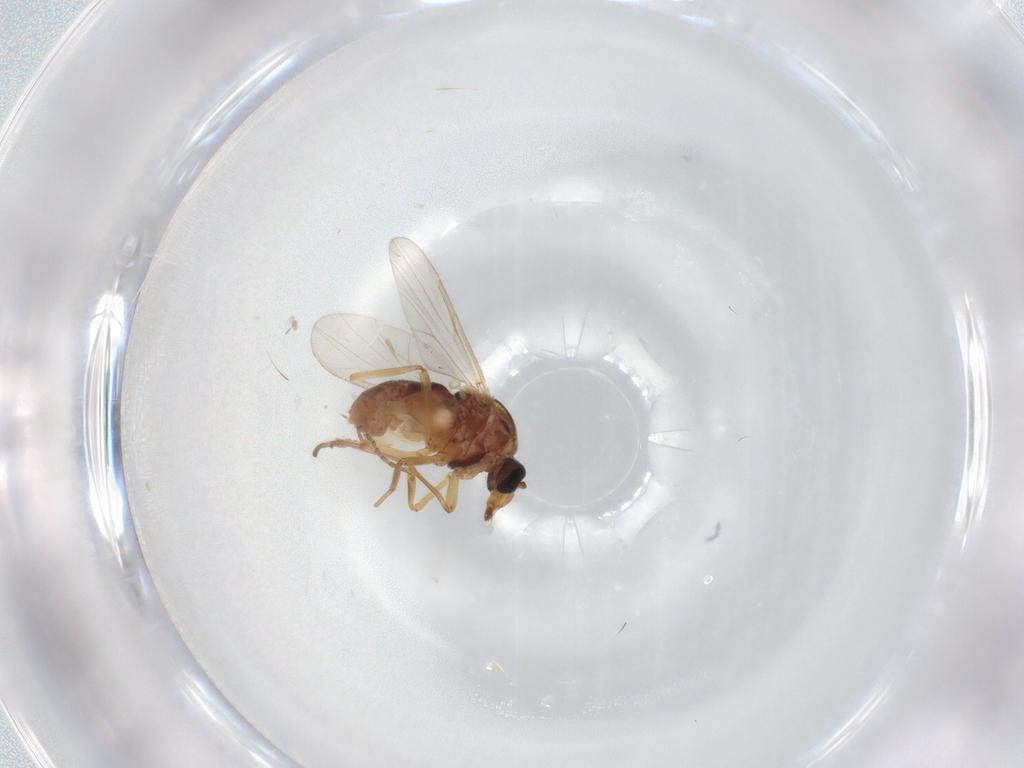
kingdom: Animalia
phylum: Arthropoda
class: Insecta
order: Diptera
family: Ceratopogonidae
